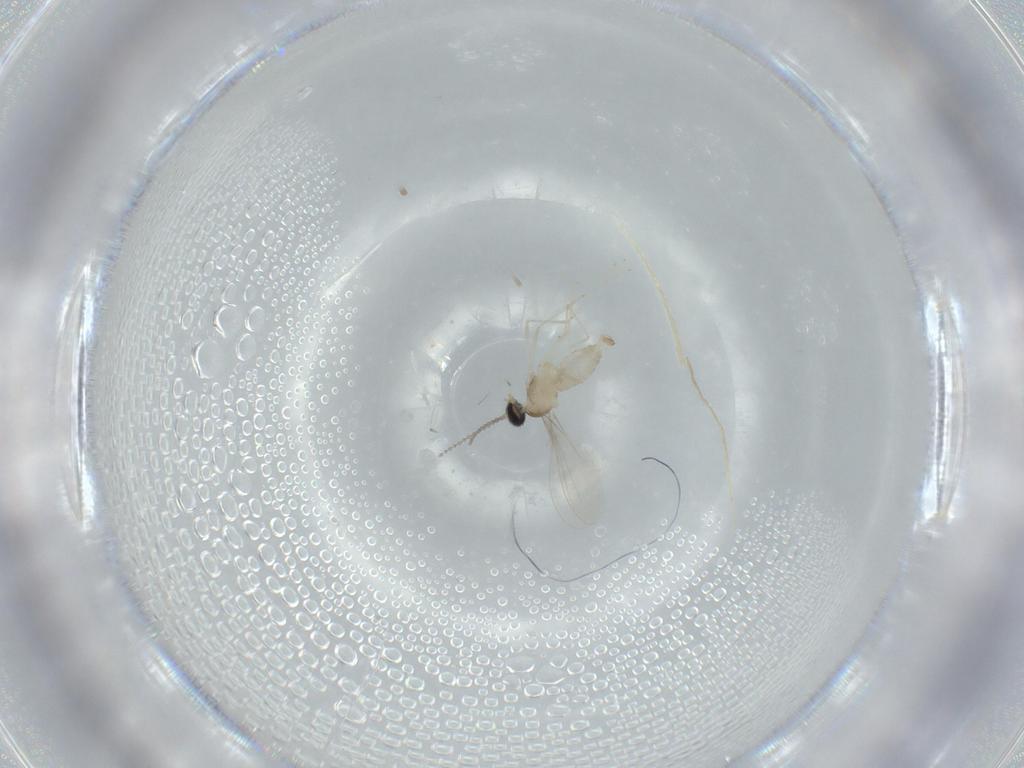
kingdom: Animalia
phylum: Arthropoda
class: Insecta
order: Diptera
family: Cecidomyiidae
